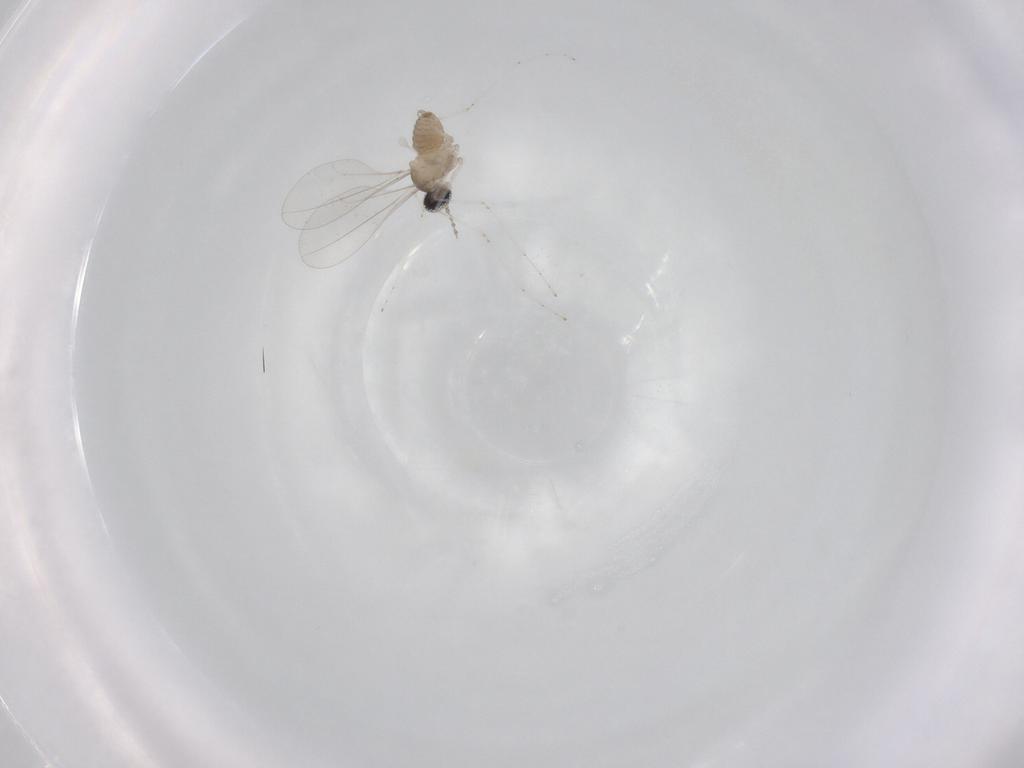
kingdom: Animalia
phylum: Arthropoda
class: Insecta
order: Diptera
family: Cecidomyiidae
